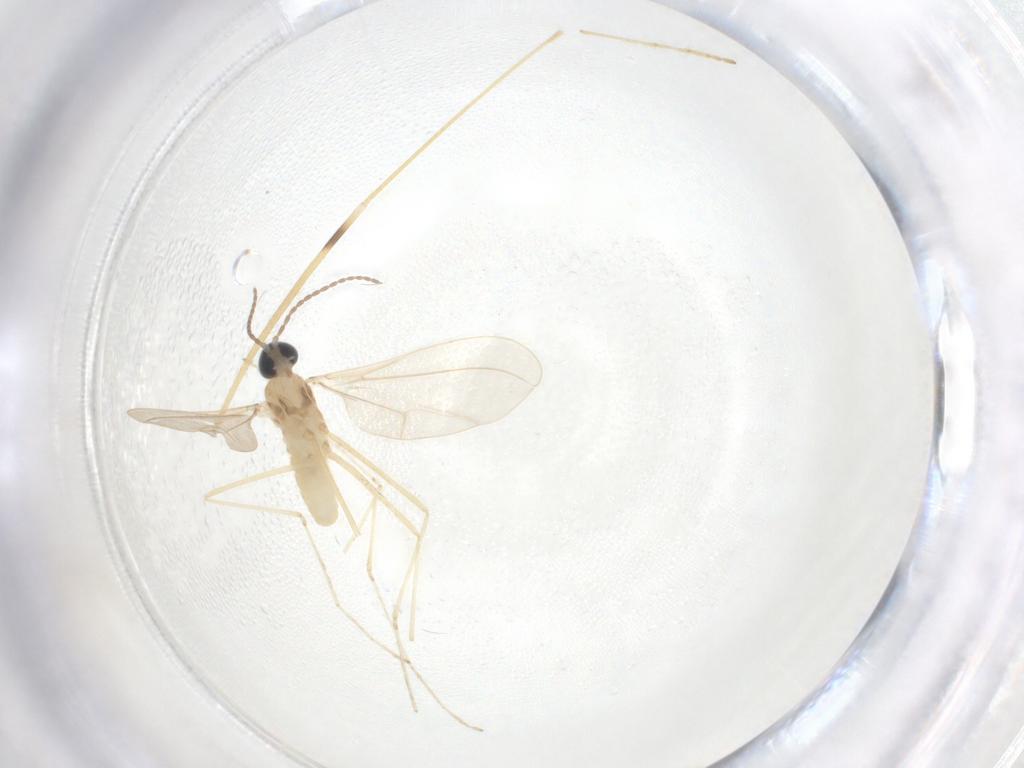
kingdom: Animalia
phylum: Arthropoda
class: Insecta
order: Diptera
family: Cecidomyiidae
